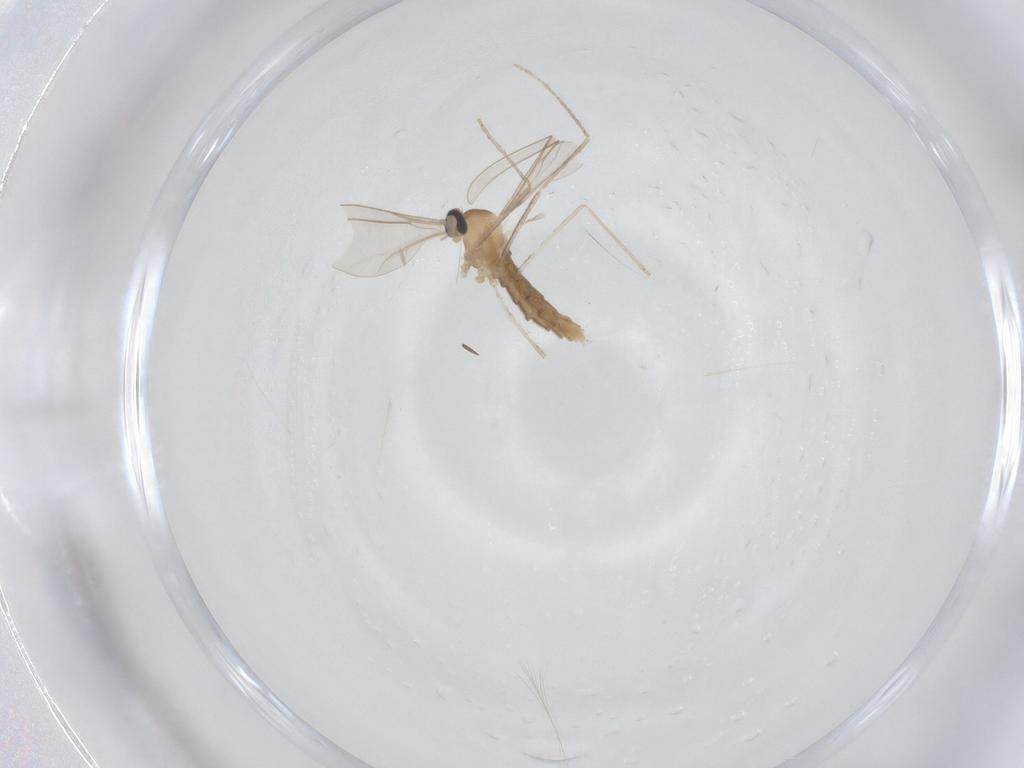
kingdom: Animalia
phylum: Arthropoda
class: Insecta
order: Diptera
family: Cecidomyiidae
